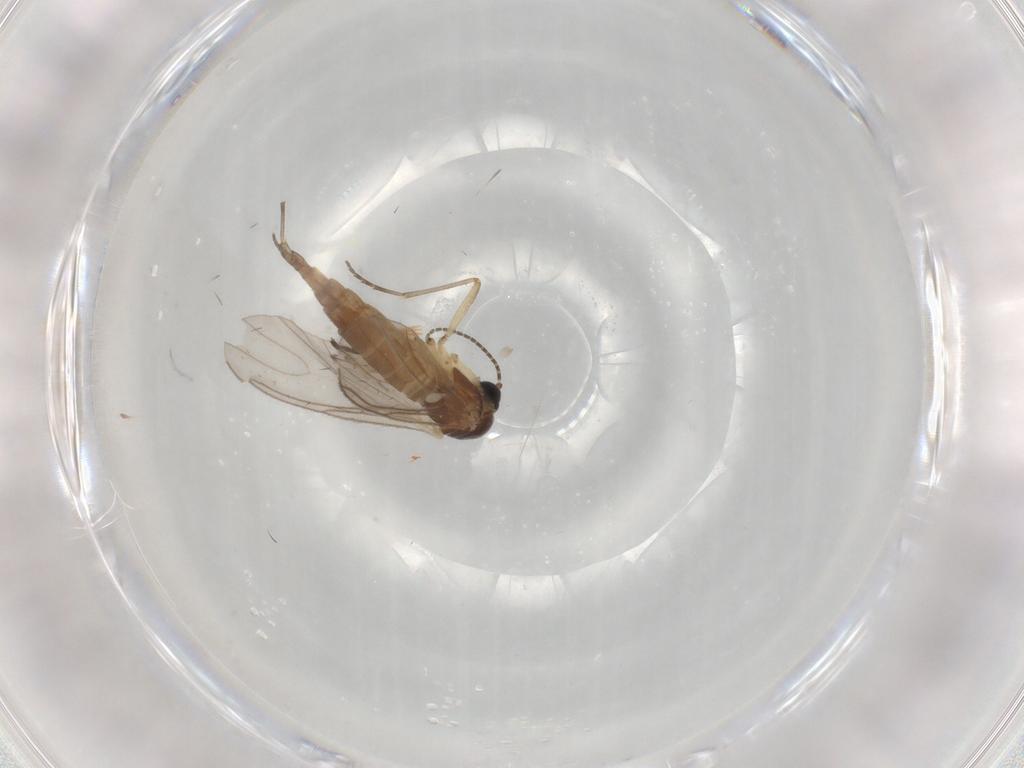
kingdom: Animalia
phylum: Arthropoda
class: Insecta
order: Diptera
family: Sciaridae
